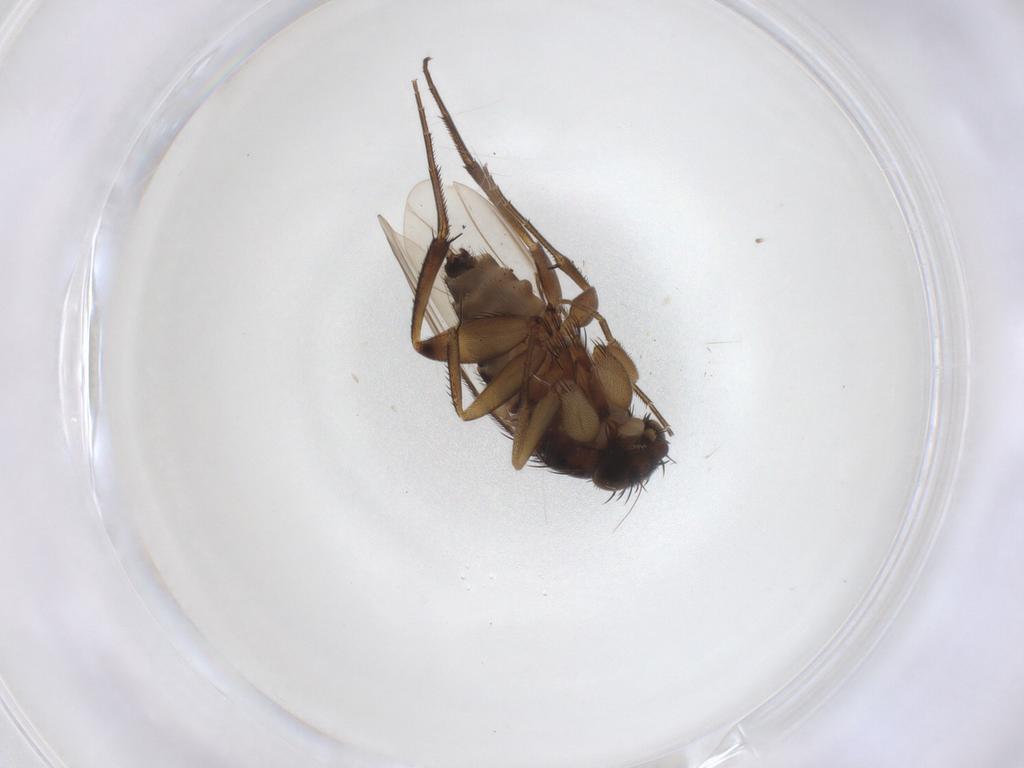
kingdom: Animalia
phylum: Arthropoda
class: Insecta
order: Diptera
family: Phoridae
